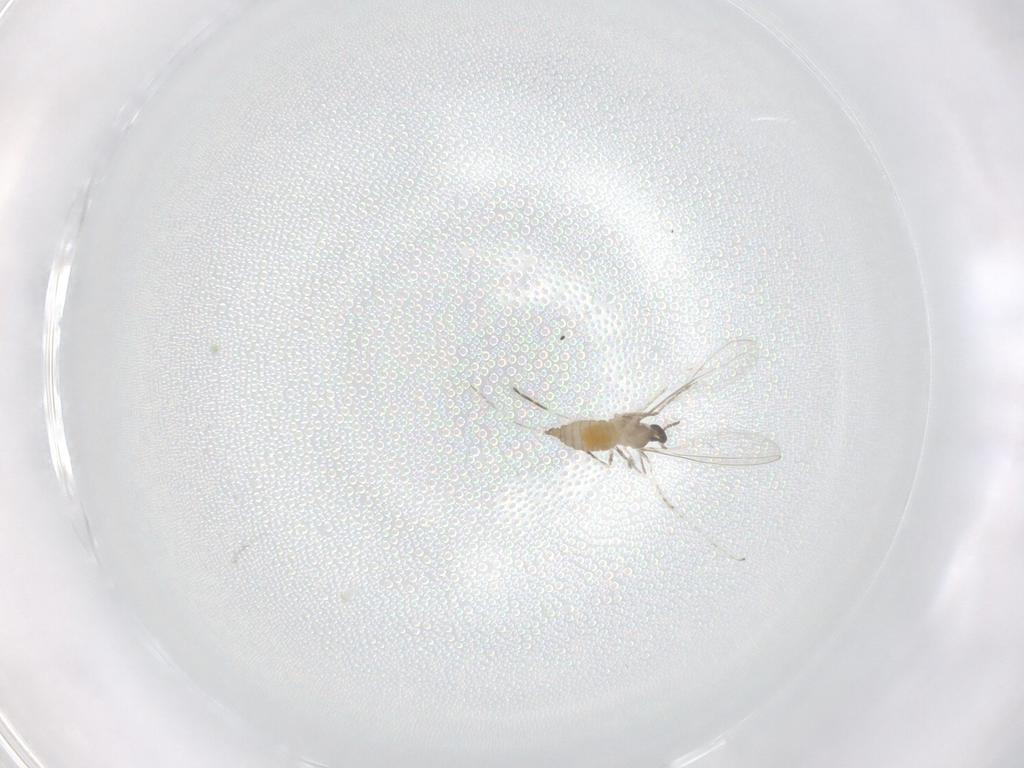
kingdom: Animalia
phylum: Arthropoda
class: Insecta
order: Diptera
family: Cecidomyiidae
